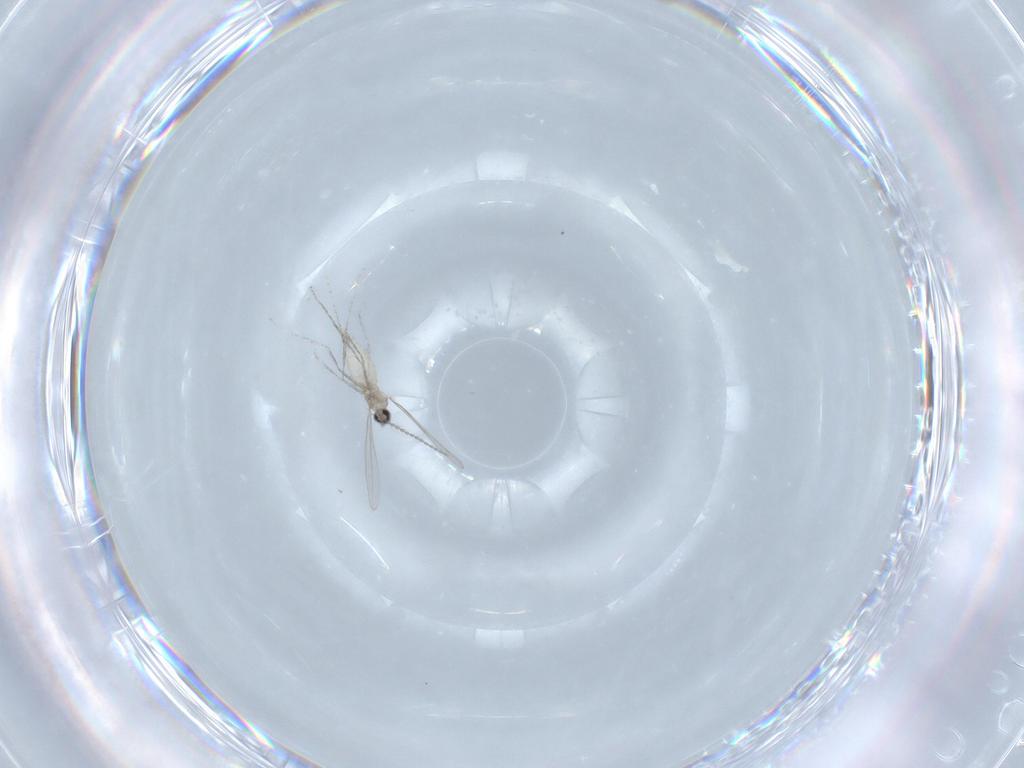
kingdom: Animalia
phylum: Arthropoda
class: Insecta
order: Diptera
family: Cecidomyiidae
